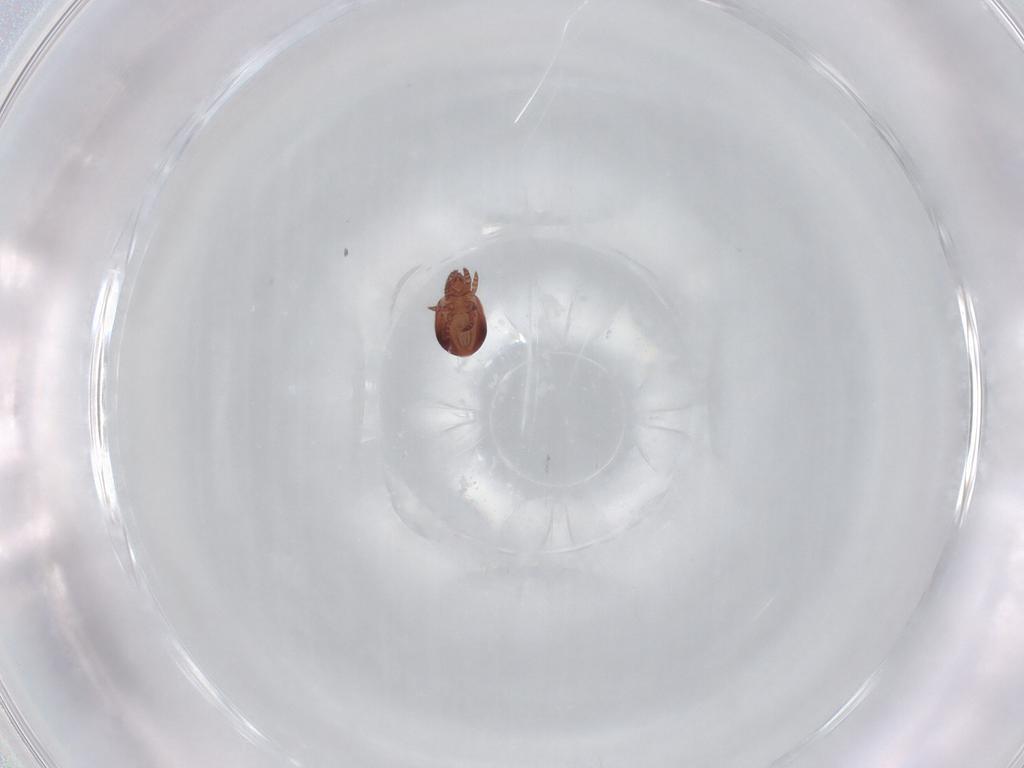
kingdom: Animalia
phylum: Arthropoda
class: Arachnida
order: Sarcoptiformes
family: Trhypochthoniidae
